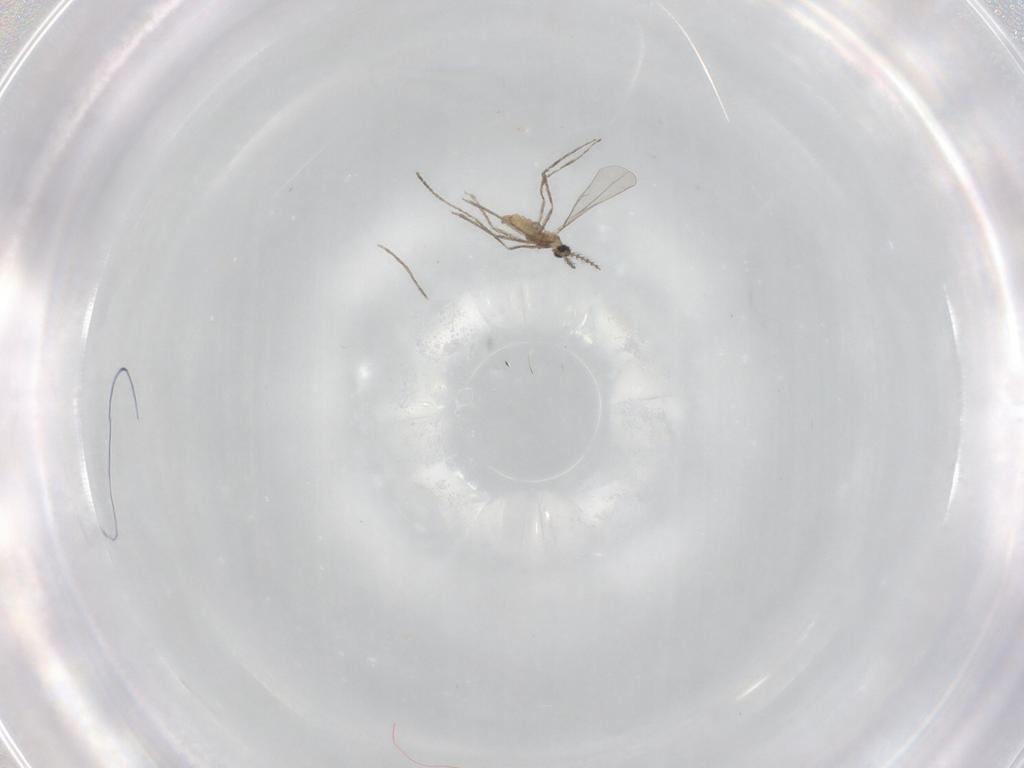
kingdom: Animalia
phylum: Arthropoda
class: Insecta
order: Diptera
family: Cecidomyiidae
